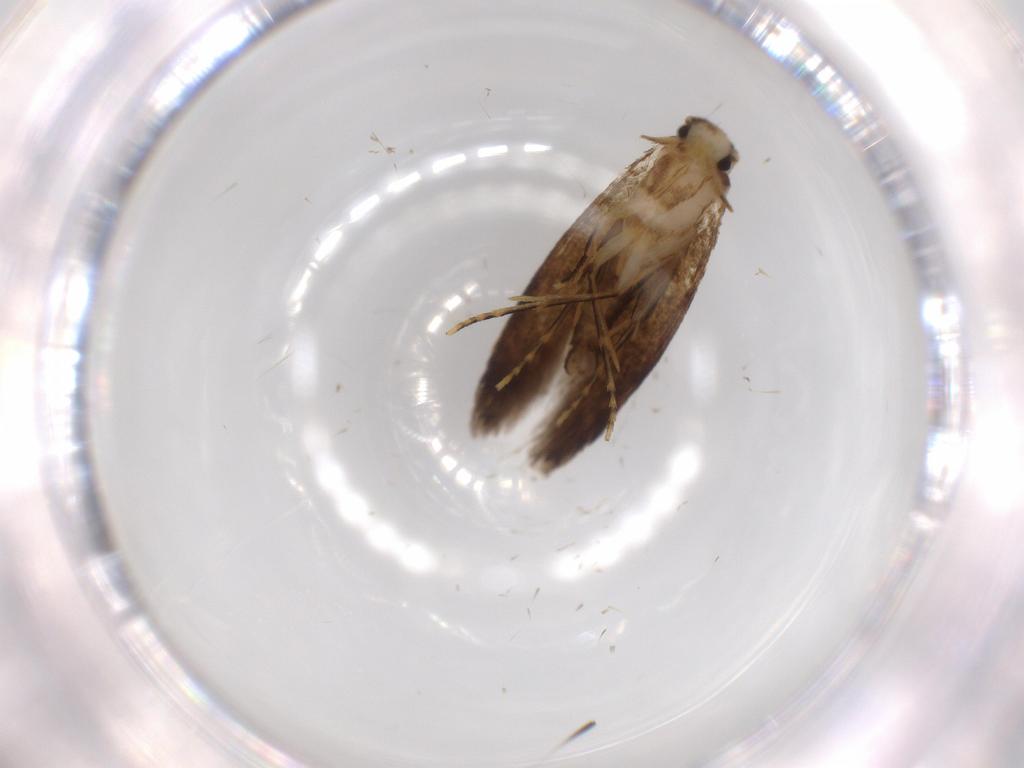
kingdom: Animalia
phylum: Arthropoda
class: Insecta
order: Lepidoptera
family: Tineidae
